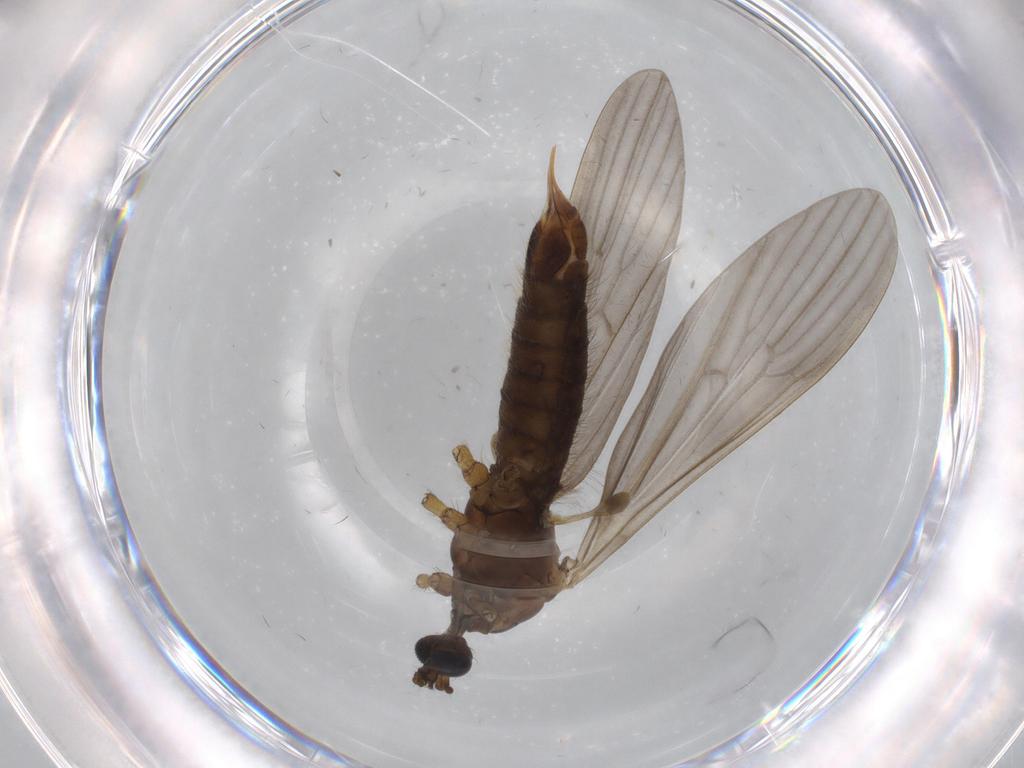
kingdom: Animalia
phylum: Arthropoda
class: Insecta
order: Diptera
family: Limoniidae
